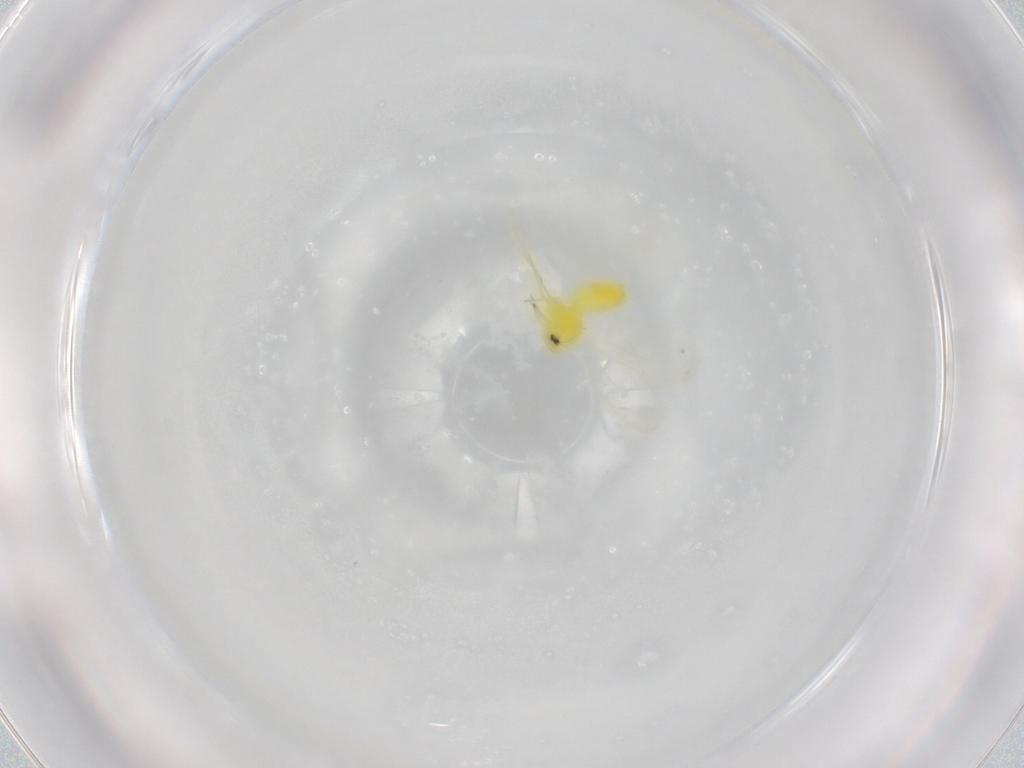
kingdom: Animalia
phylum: Arthropoda
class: Insecta
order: Hemiptera
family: Aleyrodidae
